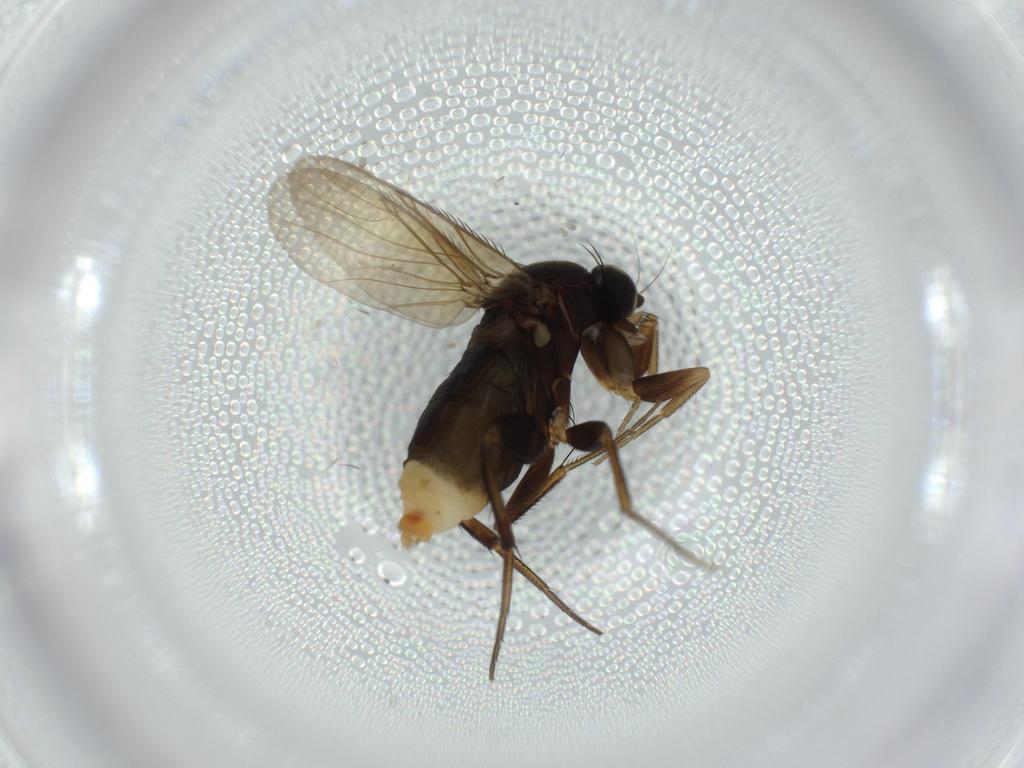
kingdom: Animalia
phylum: Arthropoda
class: Insecta
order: Diptera
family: Phoridae
